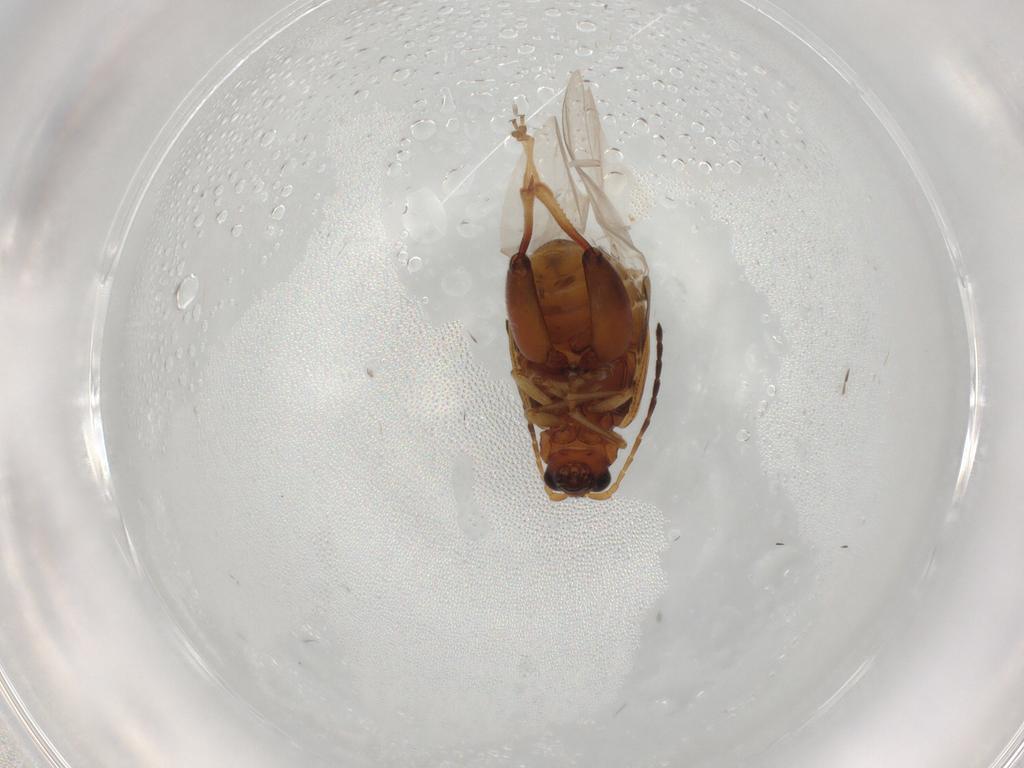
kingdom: Animalia
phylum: Arthropoda
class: Insecta
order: Coleoptera
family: Chrysomelidae
